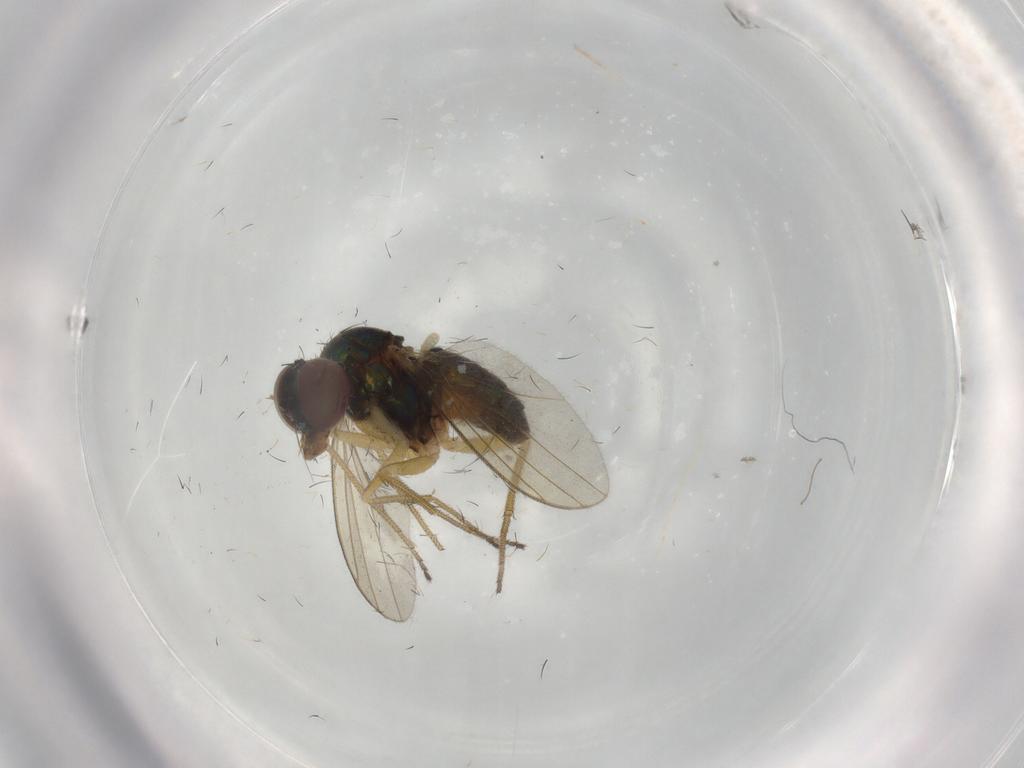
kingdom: Animalia
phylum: Arthropoda
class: Insecta
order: Diptera
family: Dolichopodidae
